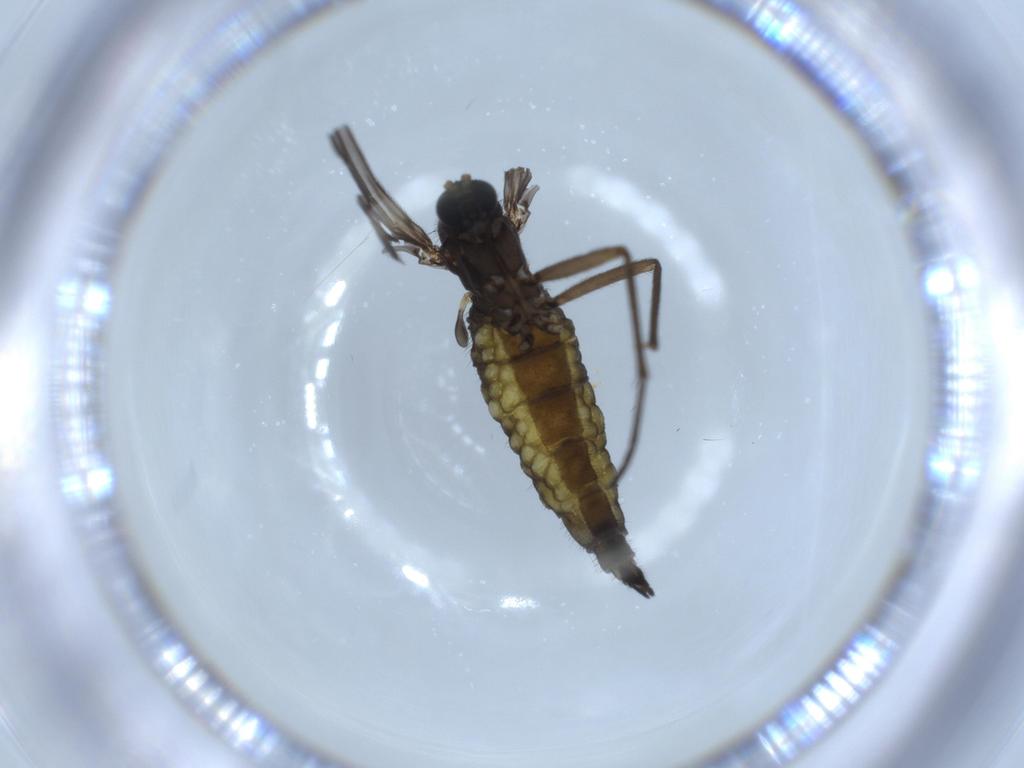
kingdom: Animalia
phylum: Arthropoda
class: Insecta
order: Diptera
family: Sciaridae
